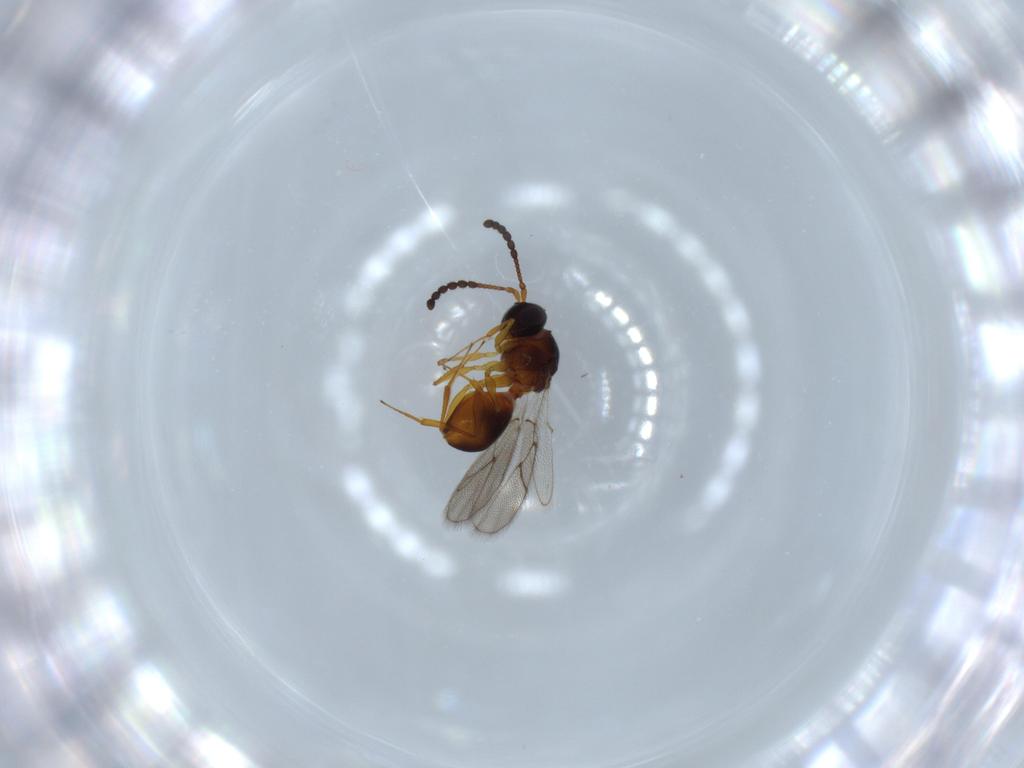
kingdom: Animalia
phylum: Arthropoda
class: Insecta
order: Hymenoptera
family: Figitidae
